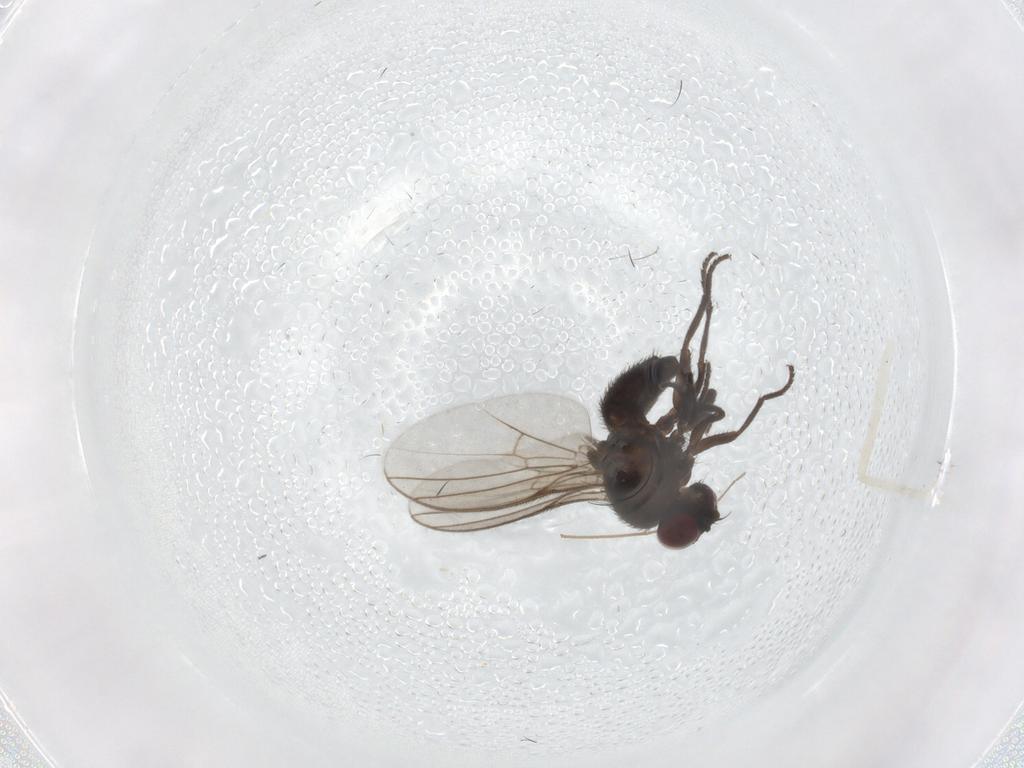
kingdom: Animalia
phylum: Arthropoda
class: Insecta
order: Diptera
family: Agromyzidae
